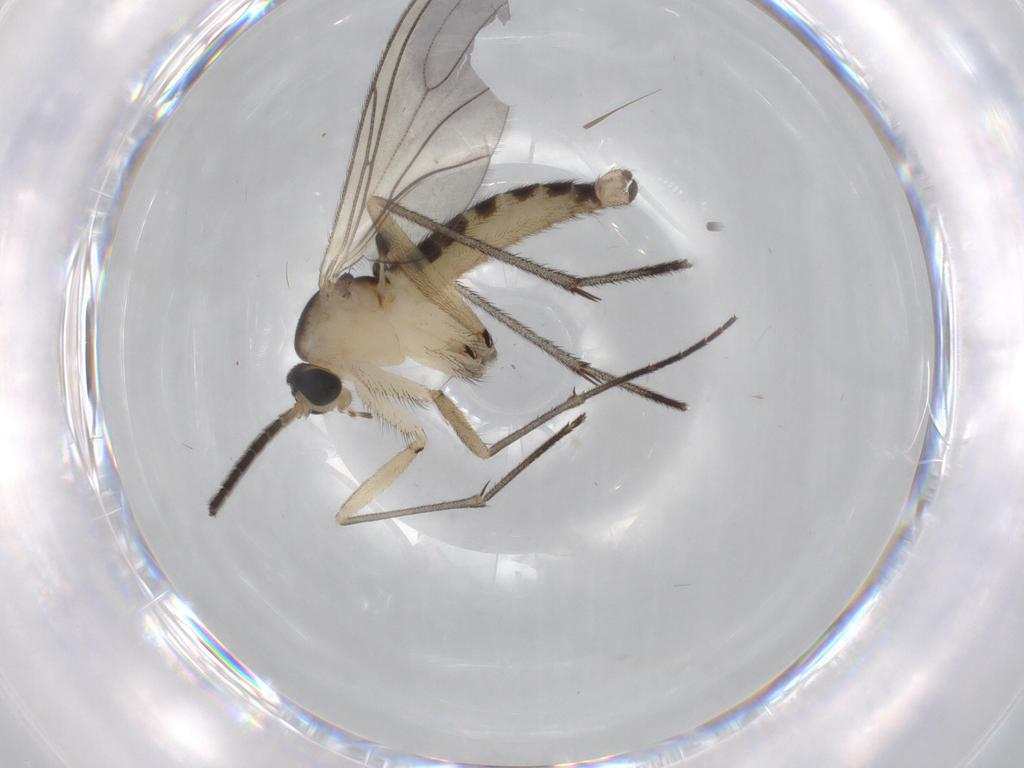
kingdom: Animalia
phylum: Arthropoda
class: Insecta
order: Diptera
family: Sciaridae
